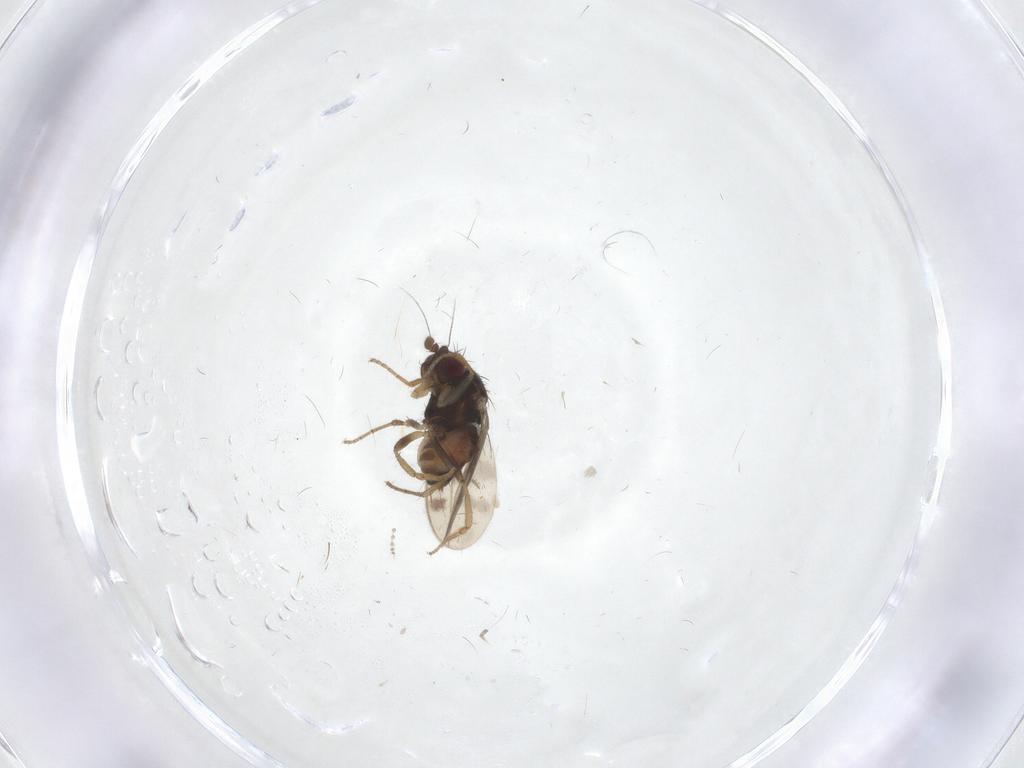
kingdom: Animalia
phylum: Arthropoda
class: Insecta
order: Diptera
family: Sphaeroceridae
